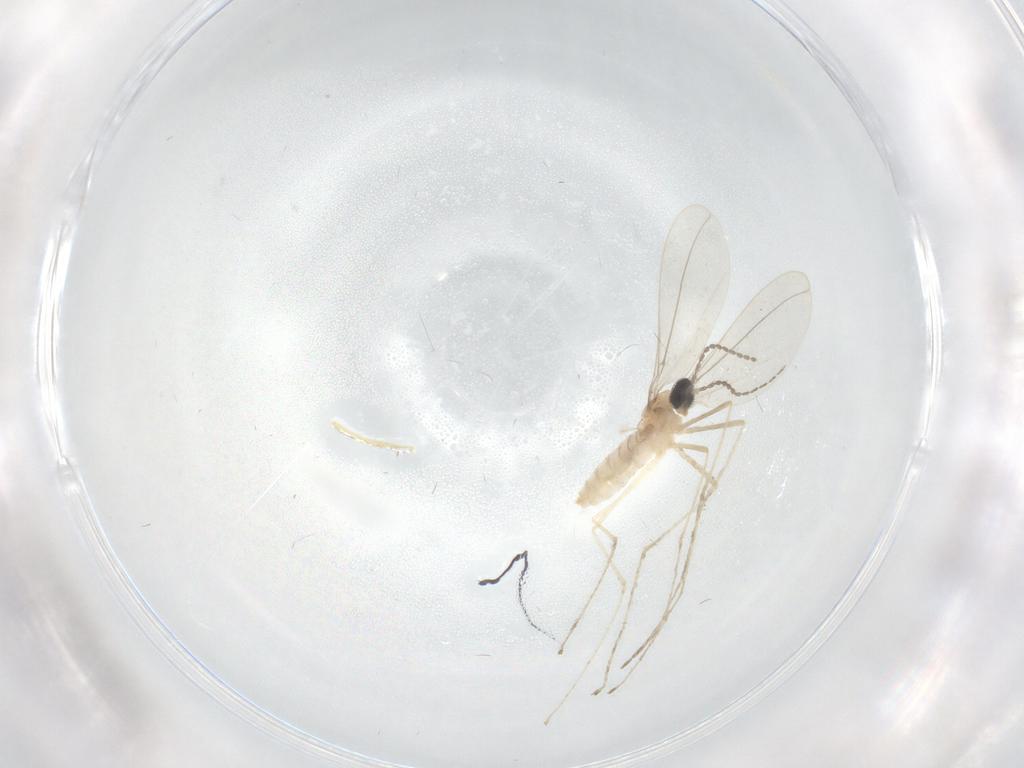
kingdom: Animalia
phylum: Arthropoda
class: Insecta
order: Diptera
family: Cecidomyiidae
